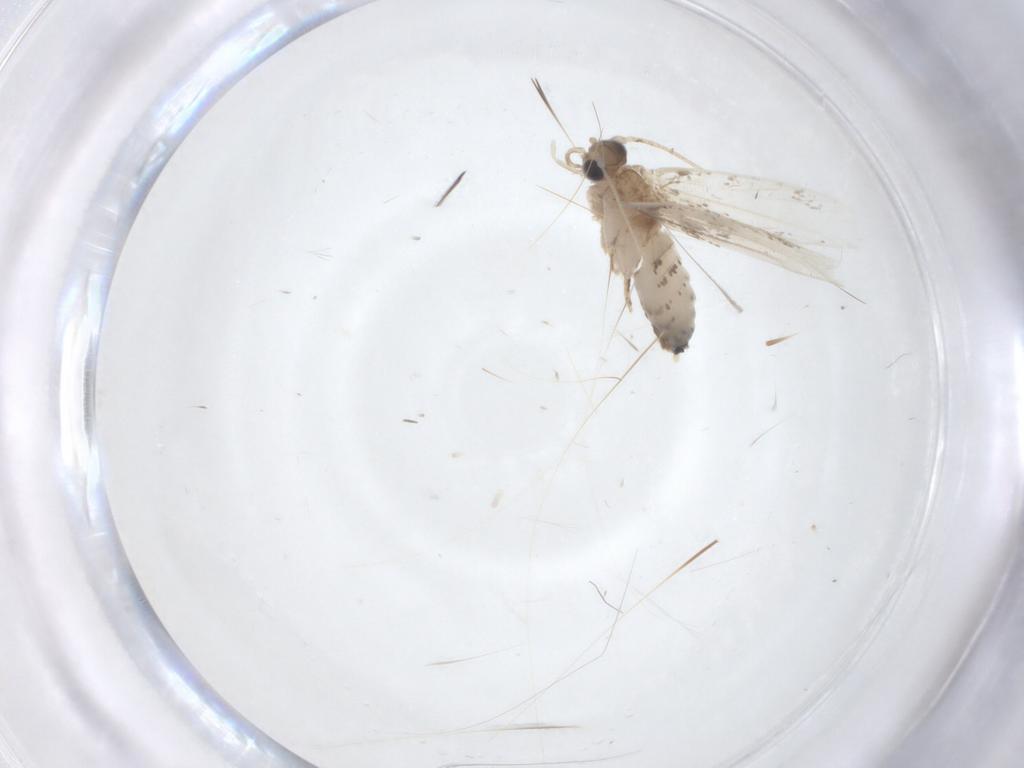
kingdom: Animalia
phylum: Arthropoda
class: Insecta
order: Lepidoptera
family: Dryadaulidae
